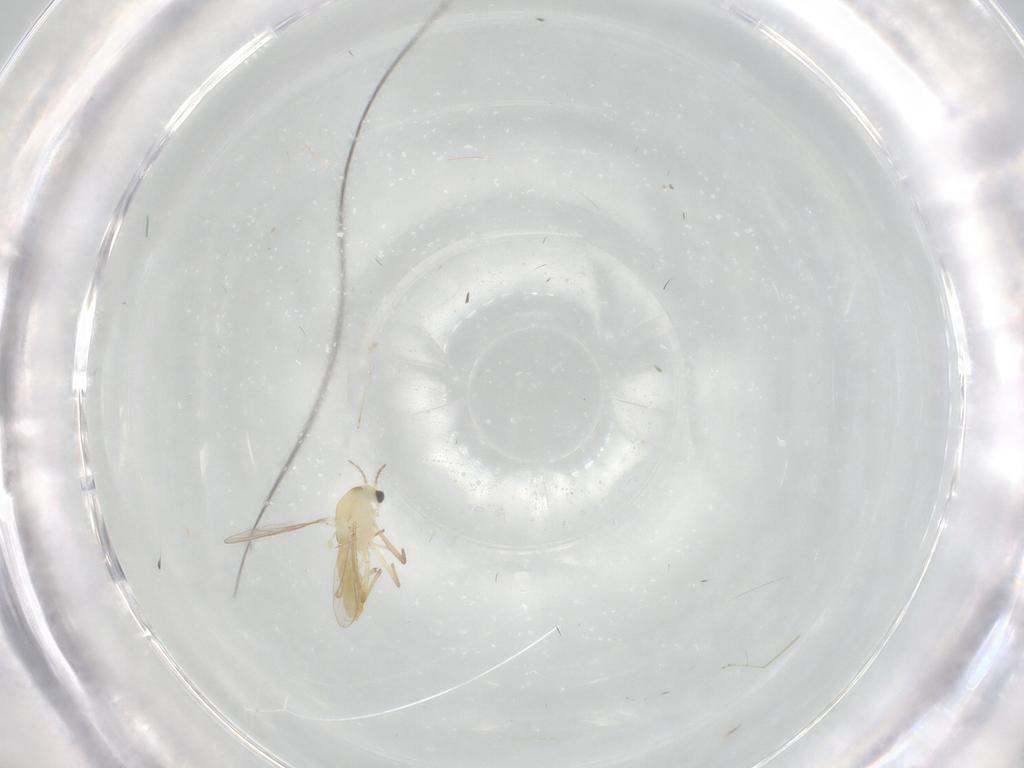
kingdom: Animalia
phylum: Arthropoda
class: Insecta
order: Diptera
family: Chironomidae
